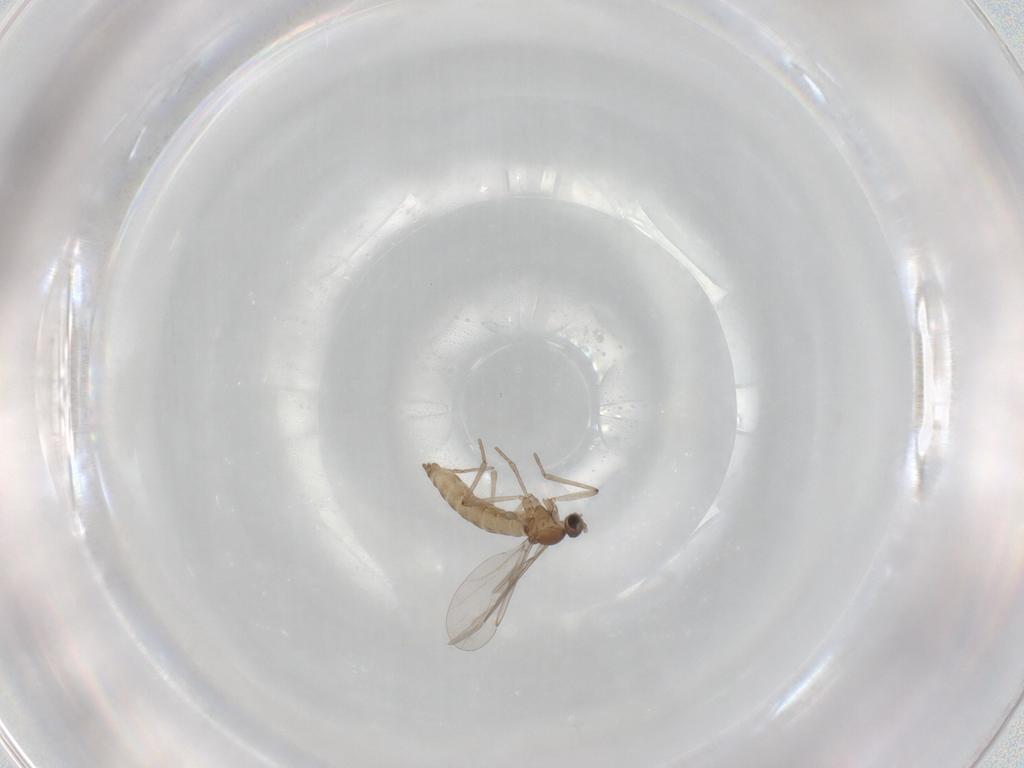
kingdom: Animalia
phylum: Arthropoda
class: Insecta
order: Diptera
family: Cecidomyiidae
